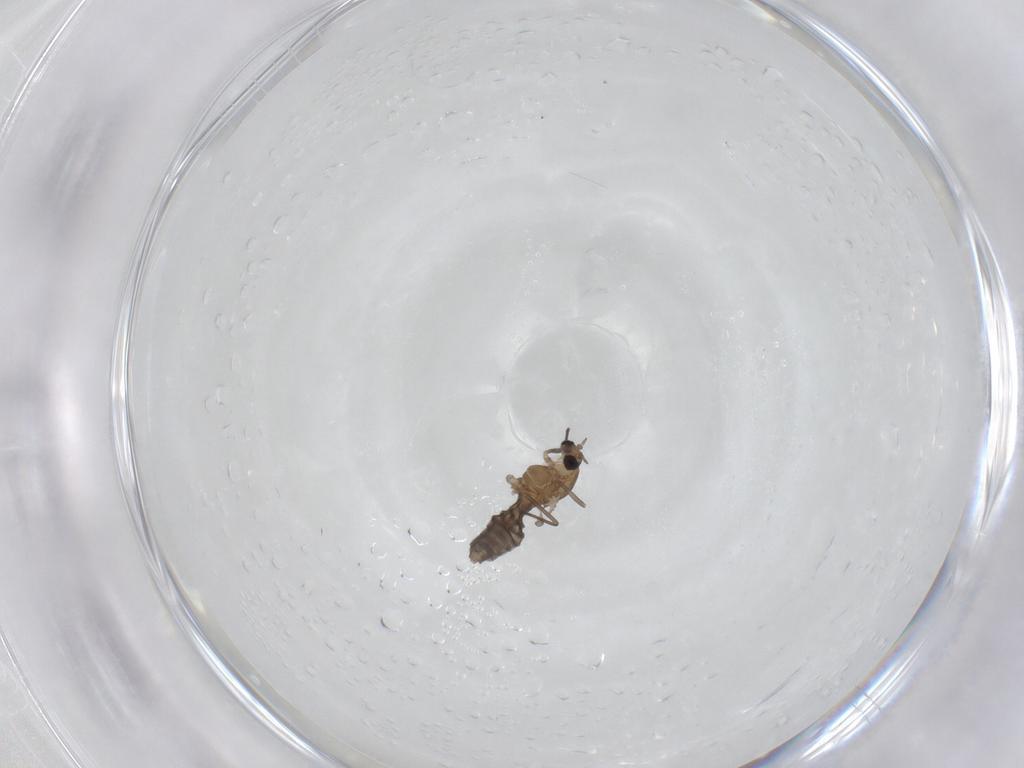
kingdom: Animalia
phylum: Arthropoda
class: Insecta
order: Diptera
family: Chironomidae
